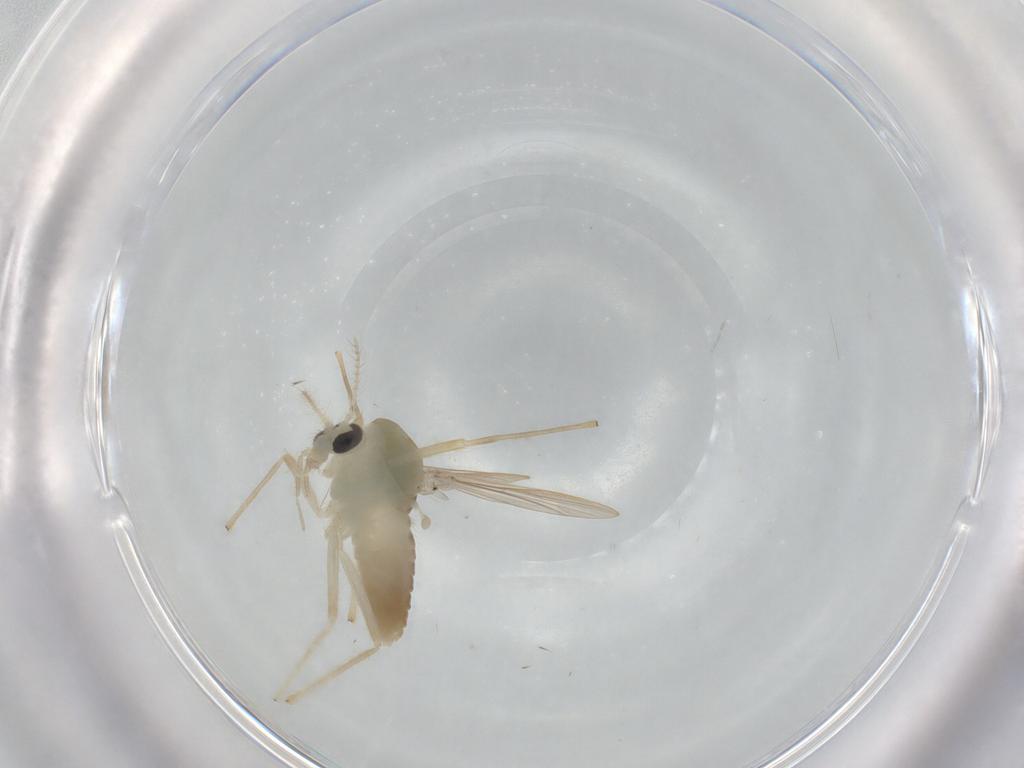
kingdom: Animalia
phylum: Arthropoda
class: Insecta
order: Diptera
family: Chironomidae
